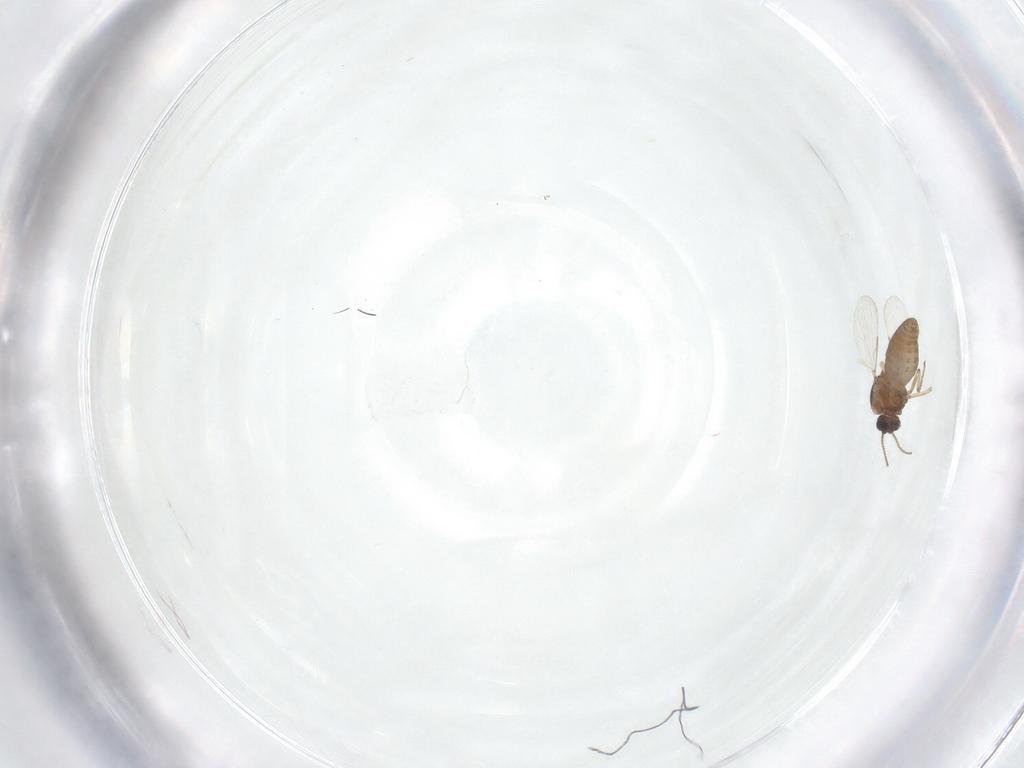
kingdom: Animalia
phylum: Arthropoda
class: Insecta
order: Diptera
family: Ceratopogonidae
